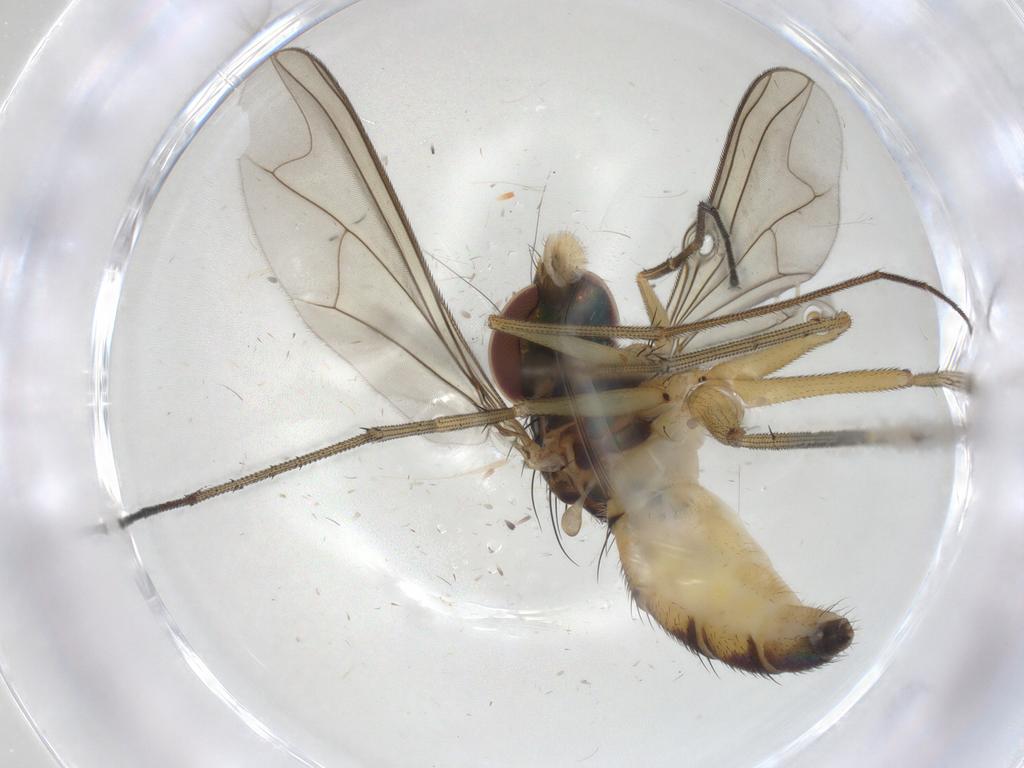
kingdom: Animalia
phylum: Arthropoda
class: Insecta
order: Diptera
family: Dolichopodidae
